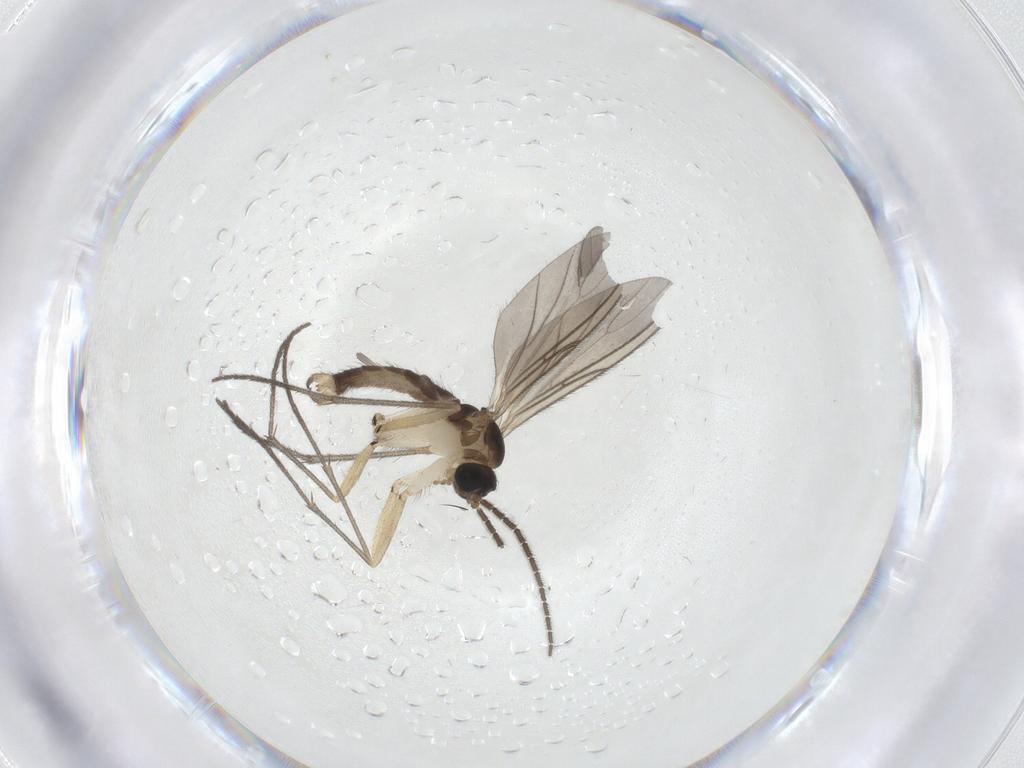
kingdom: Animalia
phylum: Arthropoda
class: Insecta
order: Diptera
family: Sciaridae
